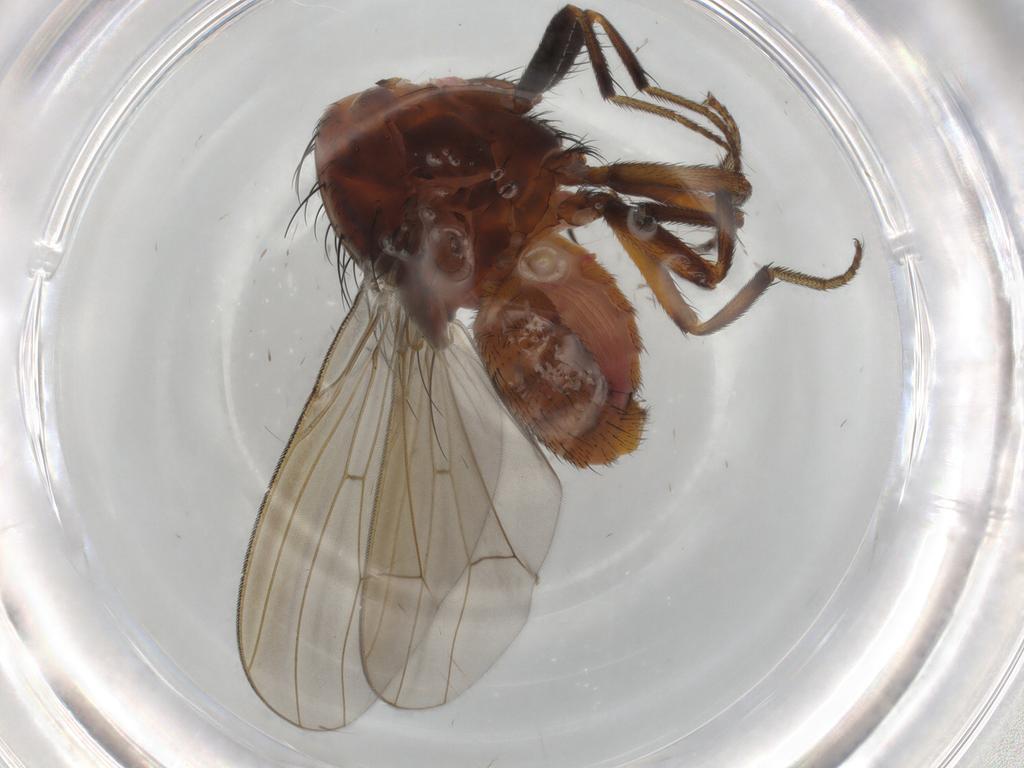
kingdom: Animalia
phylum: Arthropoda
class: Insecta
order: Diptera
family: Lauxaniidae
